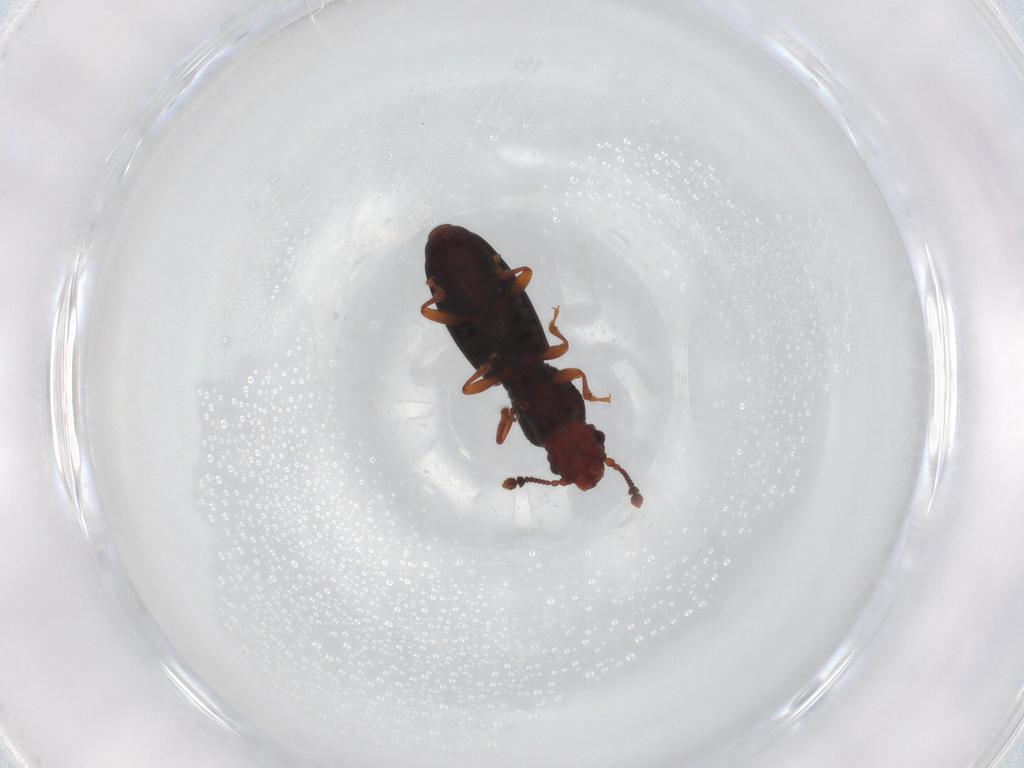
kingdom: Animalia
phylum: Arthropoda
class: Insecta
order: Coleoptera
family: Monotomidae
